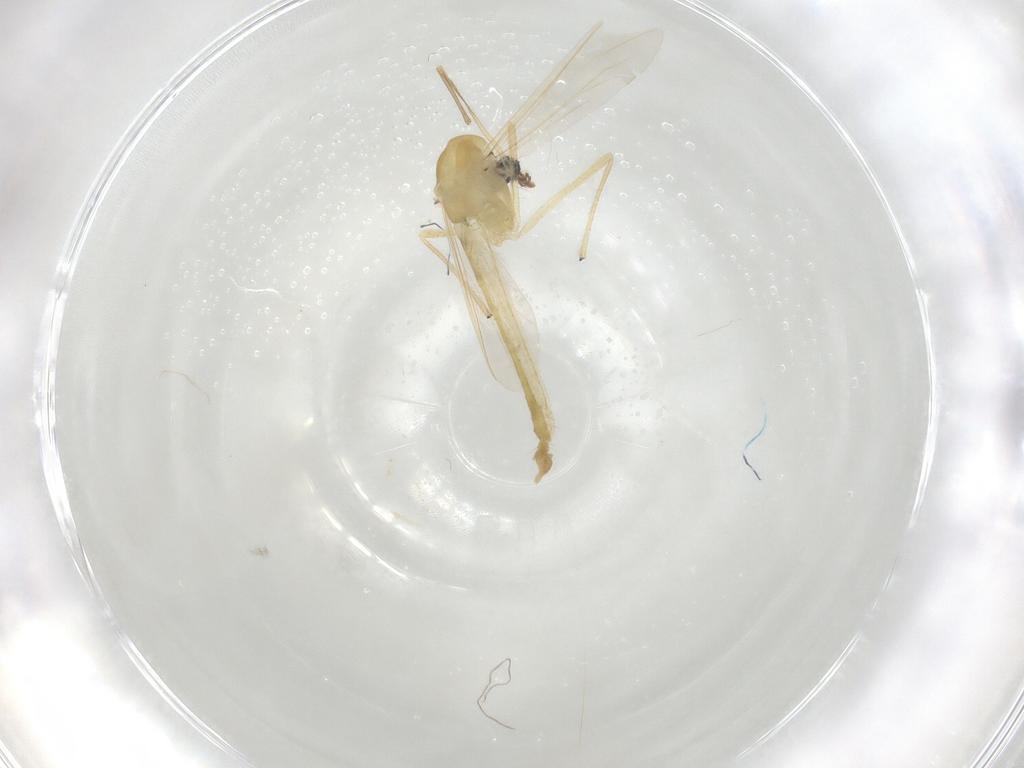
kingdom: Animalia
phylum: Arthropoda
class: Insecta
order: Diptera
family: Chironomidae
